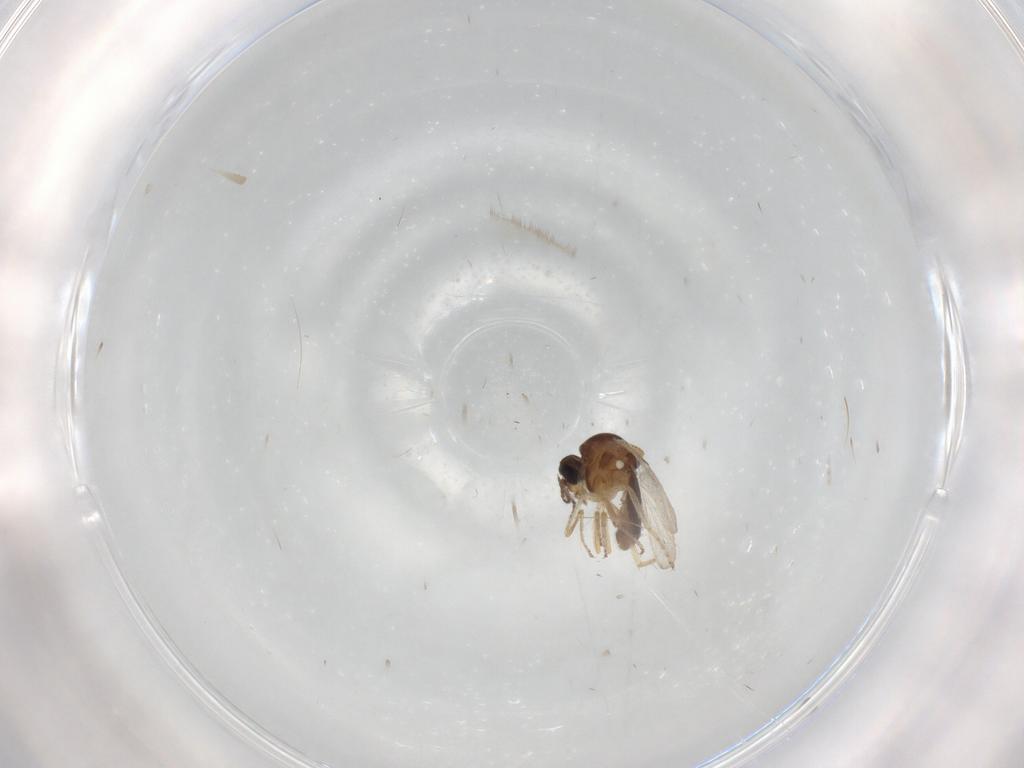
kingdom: Animalia
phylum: Arthropoda
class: Insecta
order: Diptera
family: Ceratopogonidae
